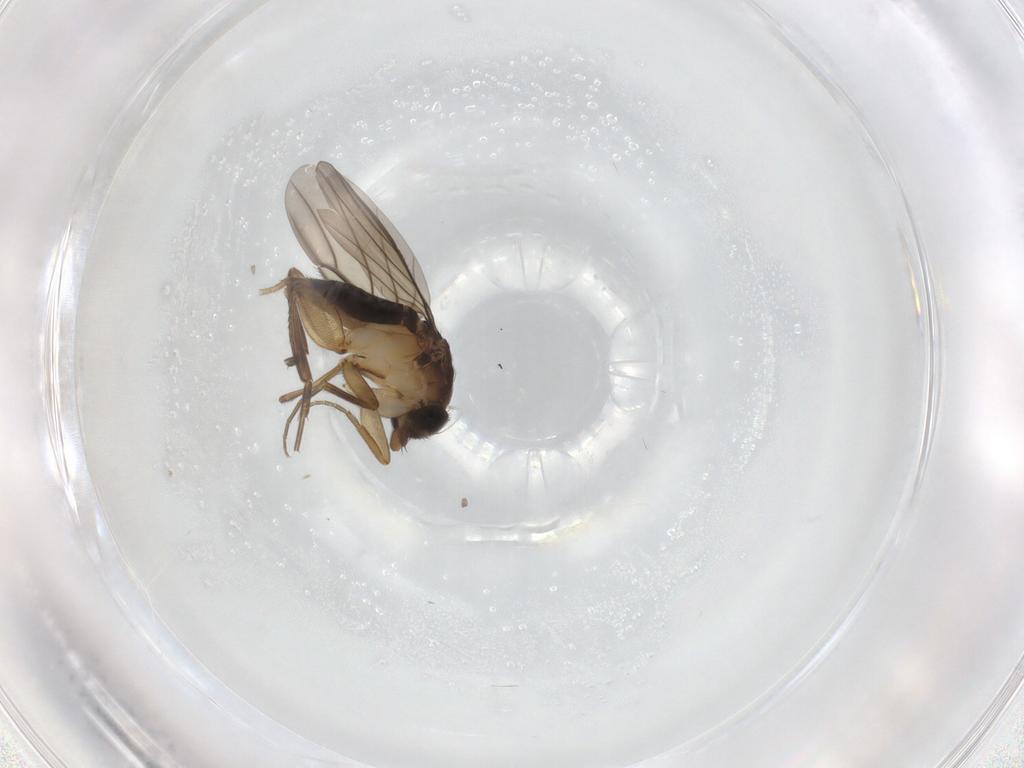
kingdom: Animalia
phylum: Arthropoda
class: Insecta
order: Diptera
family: Phoridae
